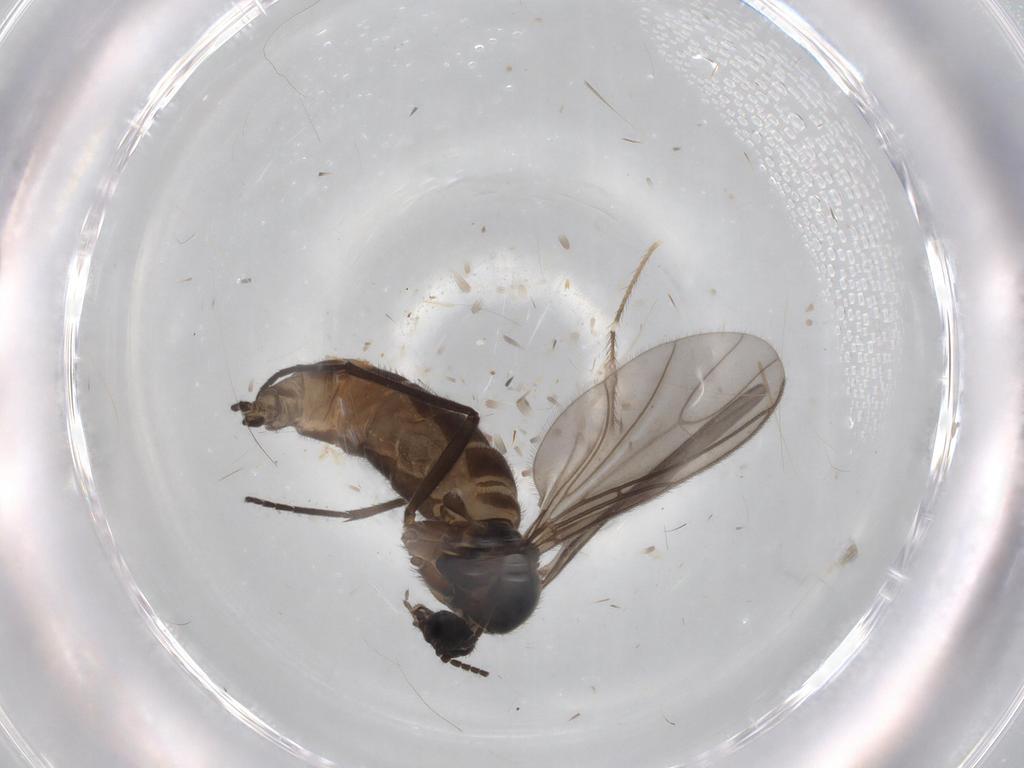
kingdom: Animalia
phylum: Arthropoda
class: Insecta
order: Diptera
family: Sciaridae
